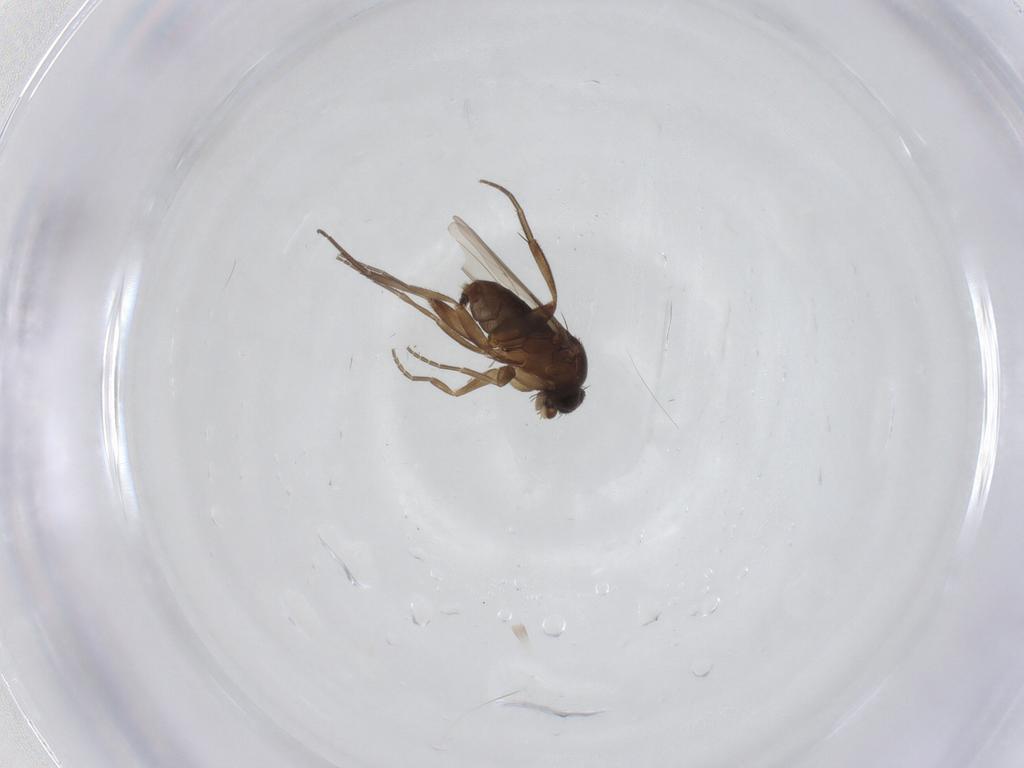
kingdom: Animalia
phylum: Arthropoda
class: Insecta
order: Diptera
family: Phoridae
